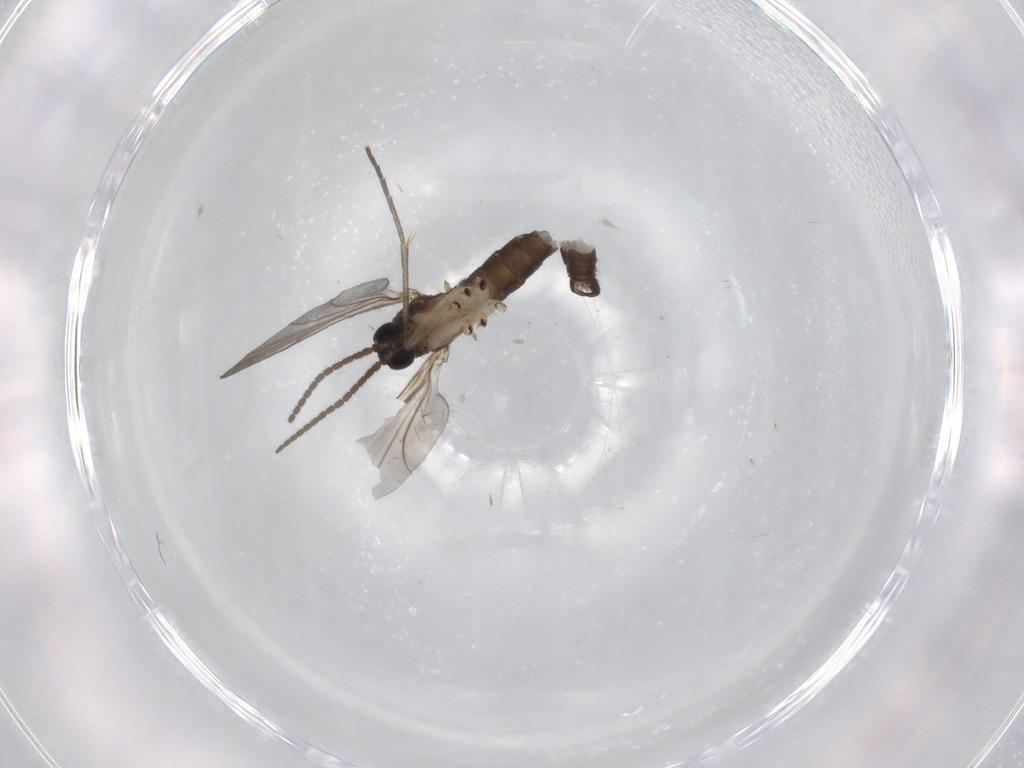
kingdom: Animalia
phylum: Arthropoda
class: Insecta
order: Diptera
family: Sciaridae
